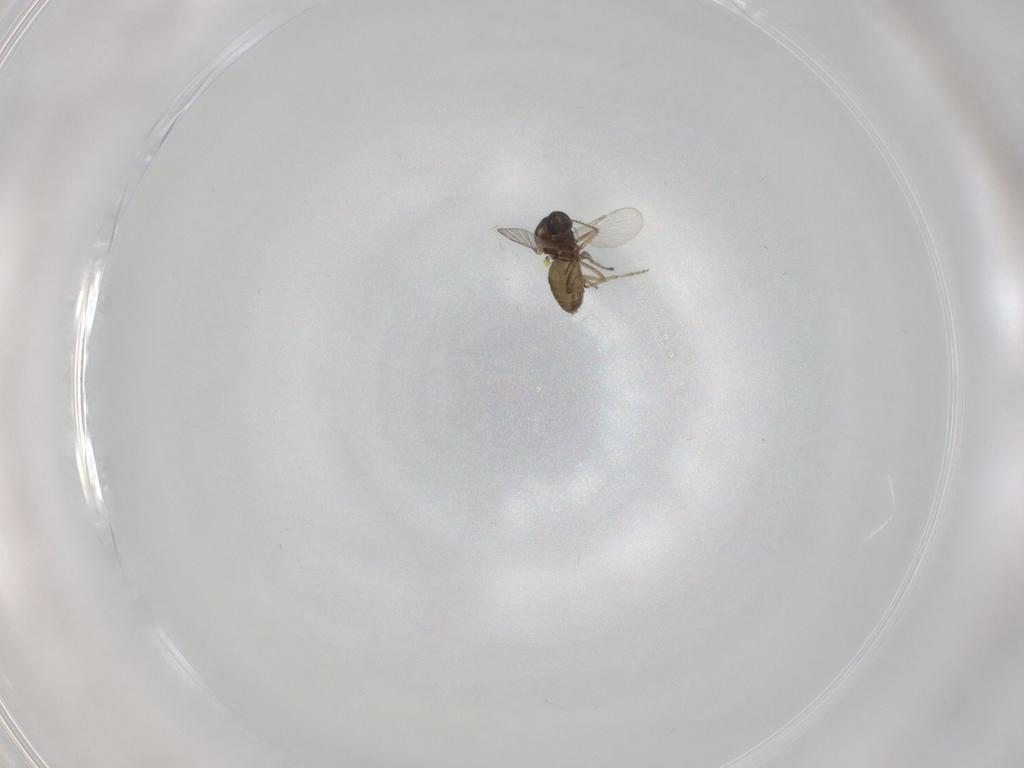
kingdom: Animalia
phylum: Arthropoda
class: Insecta
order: Diptera
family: Ceratopogonidae
